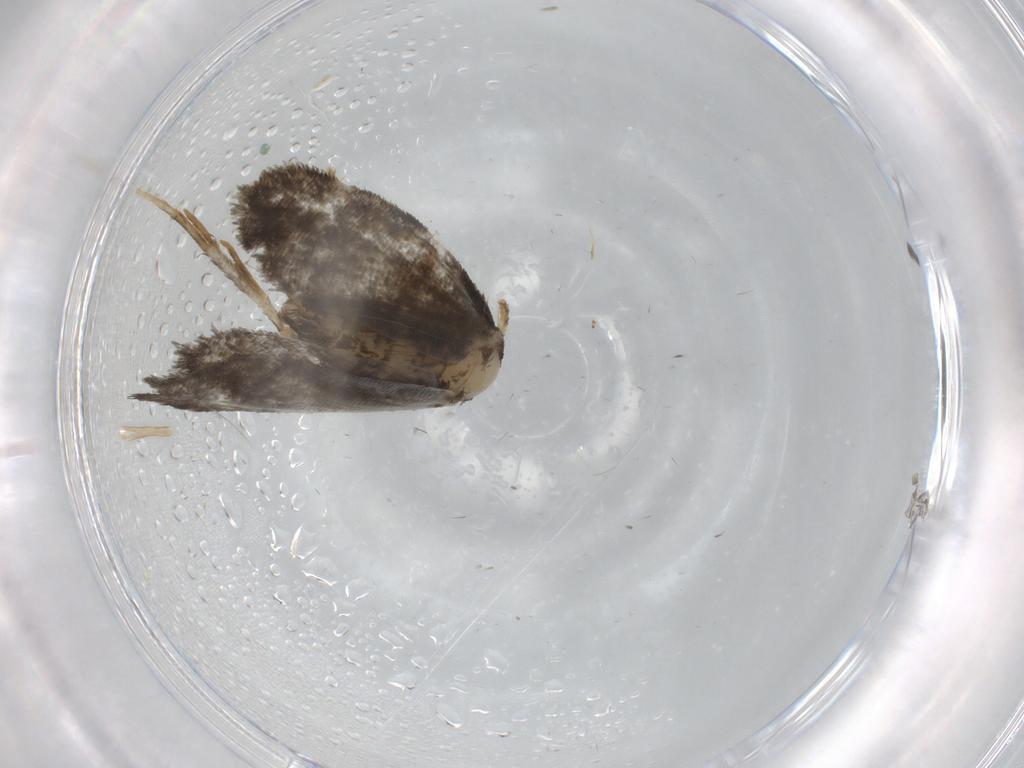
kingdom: Animalia
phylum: Arthropoda
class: Insecta
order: Lepidoptera
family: Psychidae
